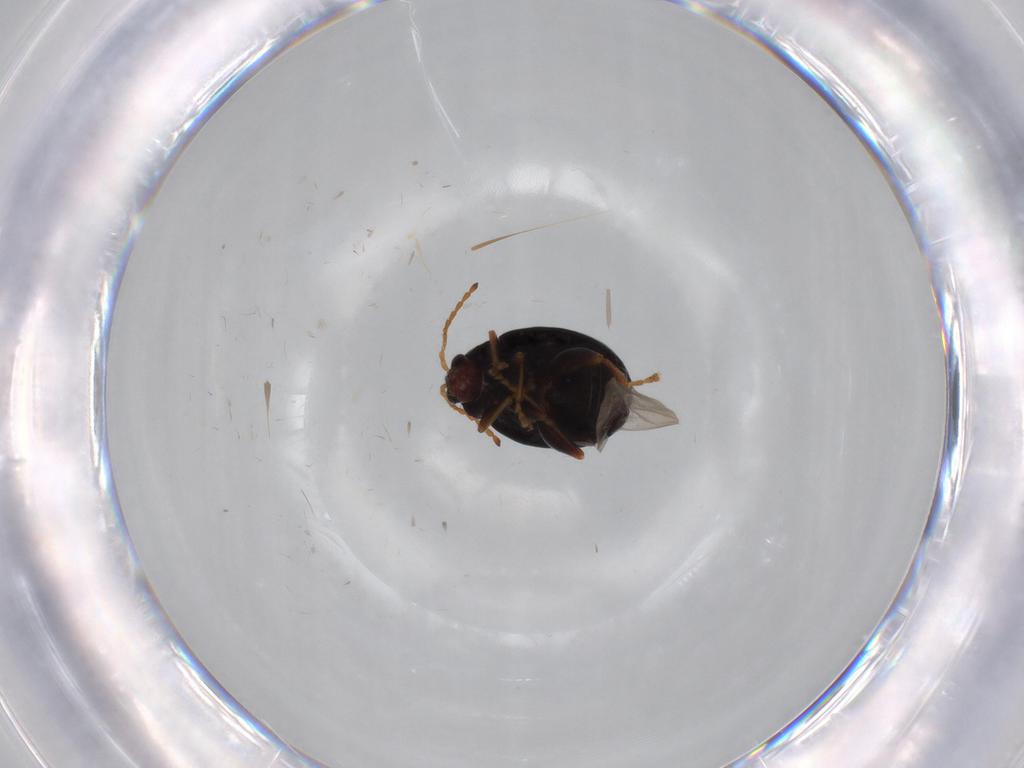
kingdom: Animalia
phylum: Arthropoda
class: Insecta
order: Coleoptera
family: Chrysomelidae
